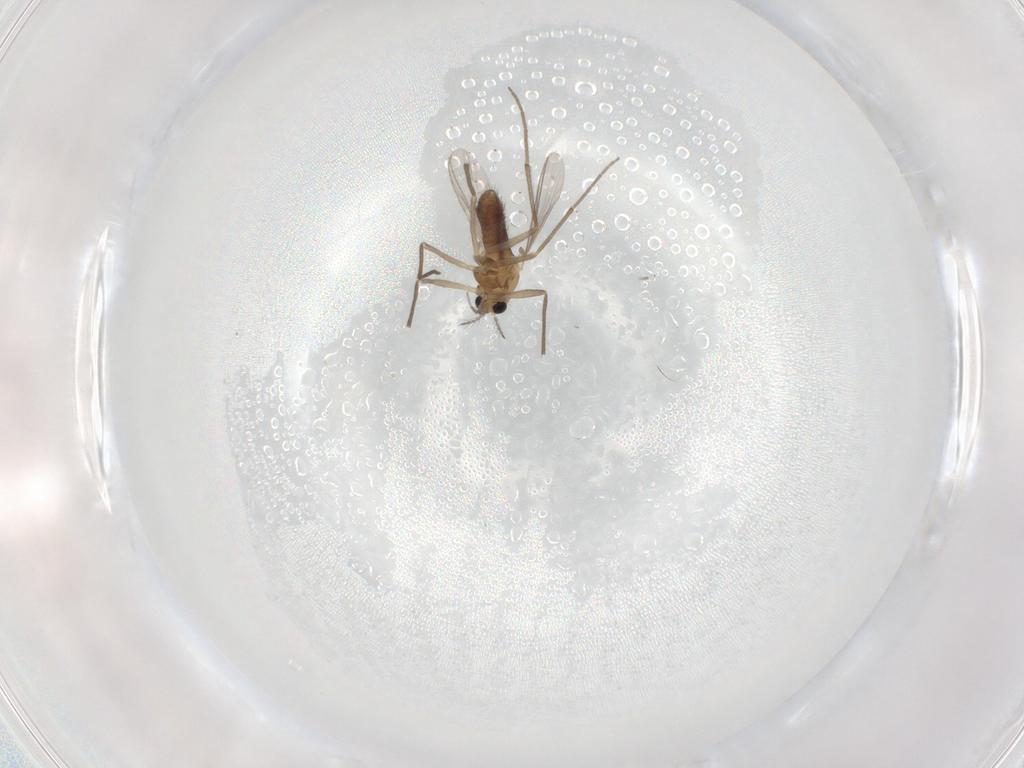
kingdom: Animalia
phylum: Arthropoda
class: Insecta
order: Diptera
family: Chironomidae
